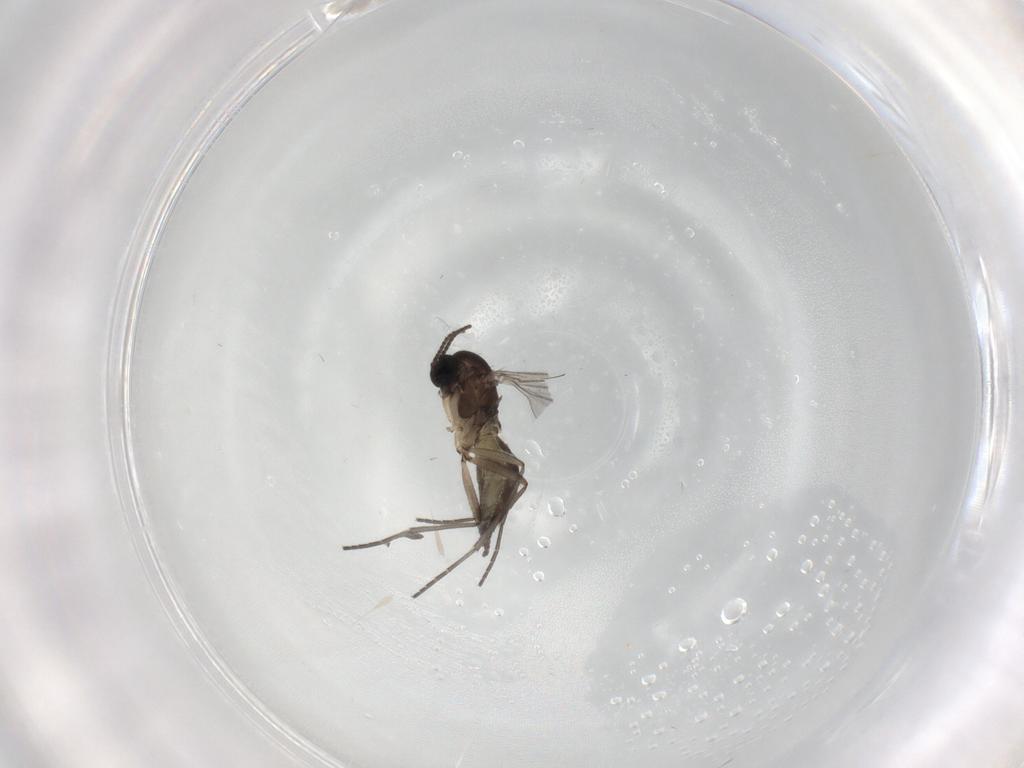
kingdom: Animalia
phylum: Arthropoda
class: Insecta
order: Diptera
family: Sciaridae
